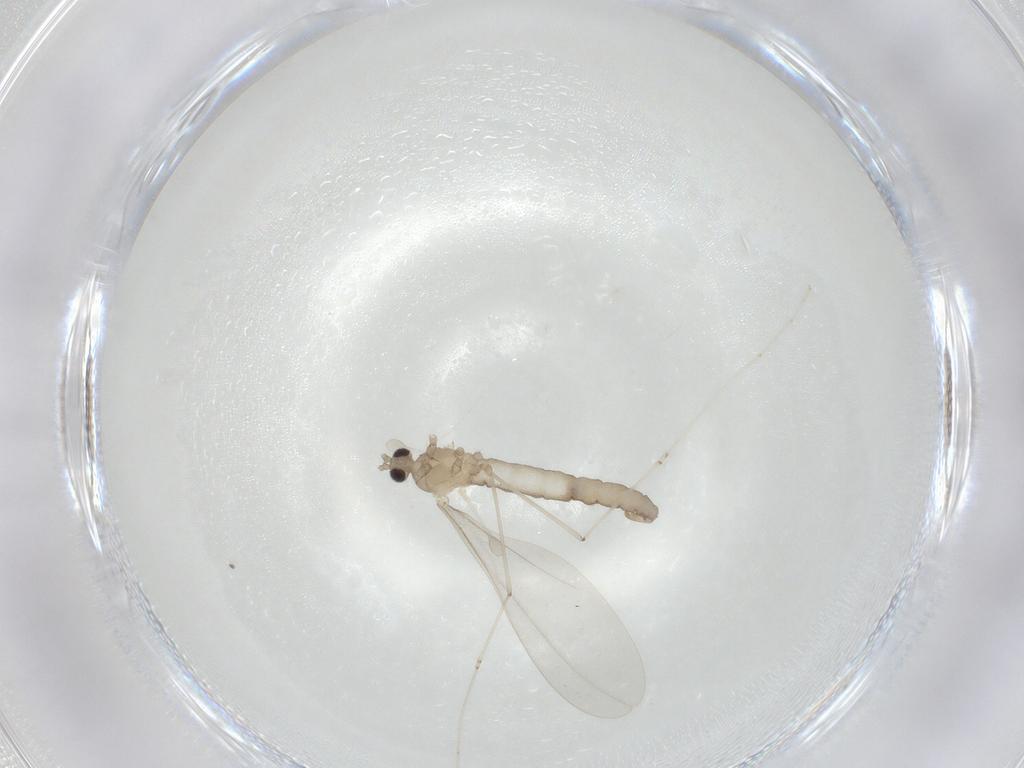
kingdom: Animalia
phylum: Arthropoda
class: Insecta
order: Diptera
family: Cecidomyiidae
